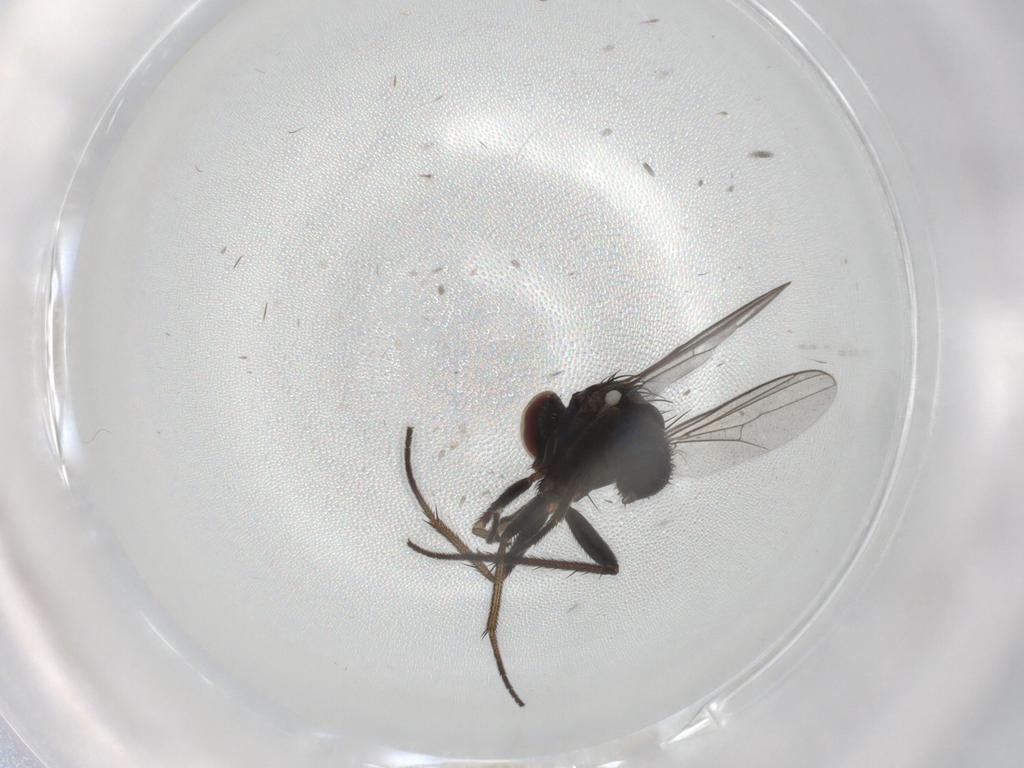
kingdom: Animalia
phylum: Arthropoda
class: Insecta
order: Diptera
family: Dolichopodidae
